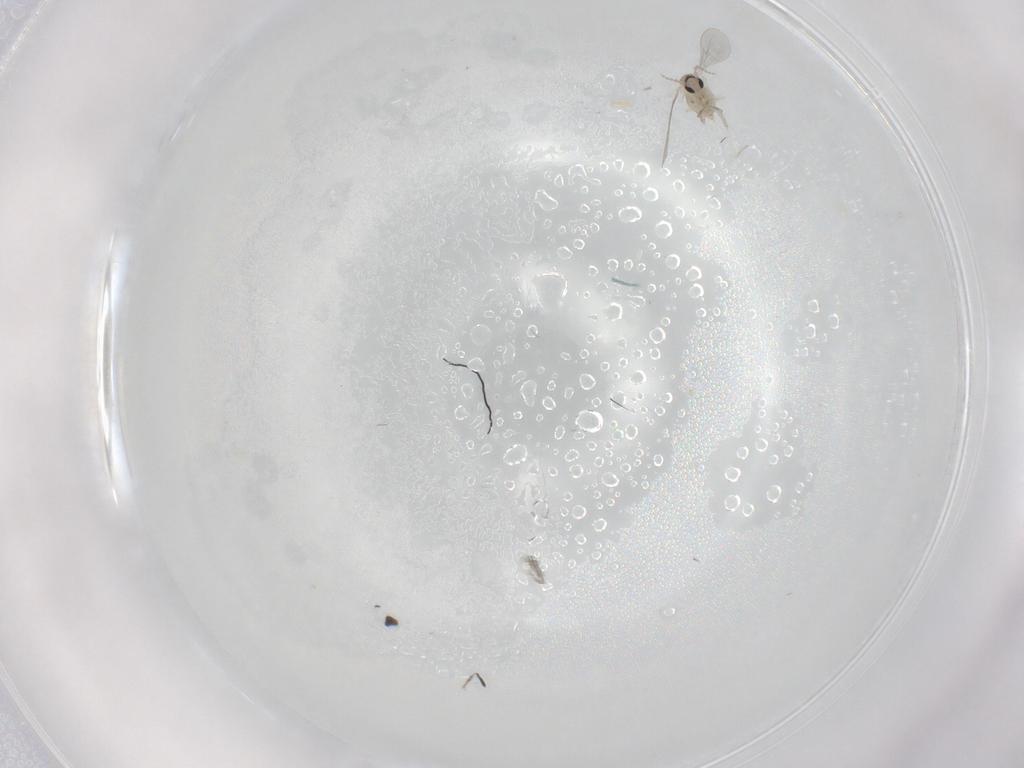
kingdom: Animalia
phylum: Arthropoda
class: Insecta
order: Diptera
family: Cecidomyiidae
